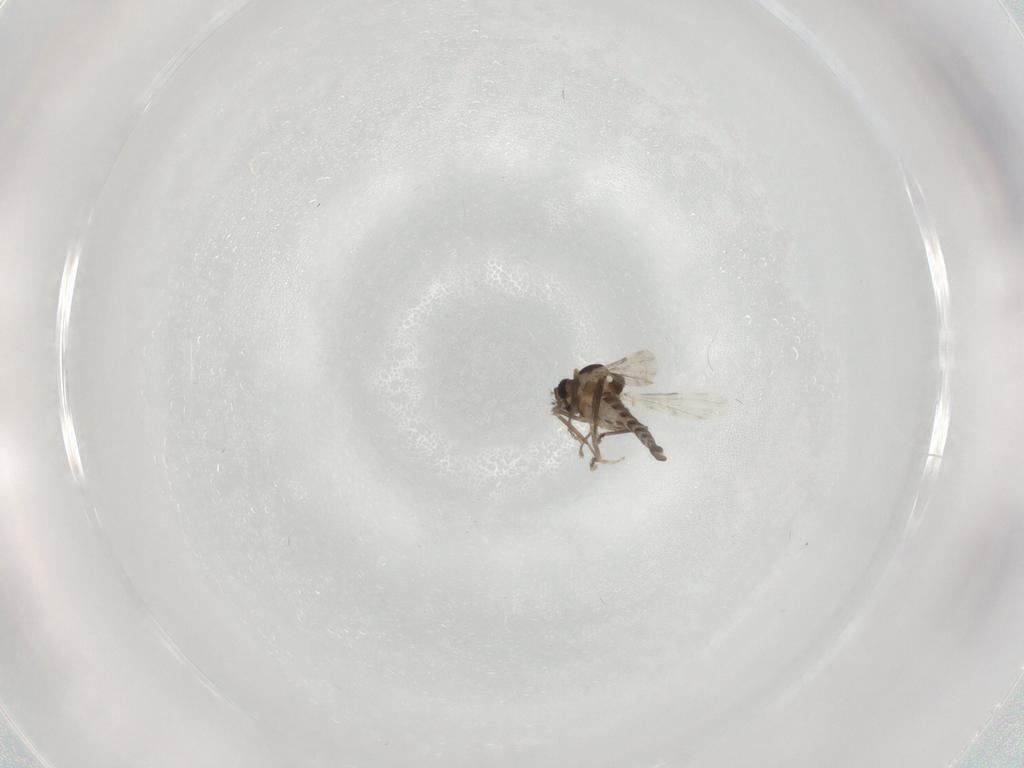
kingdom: Animalia
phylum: Arthropoda
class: Insecta
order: Diptera
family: Ceratopogonidae
